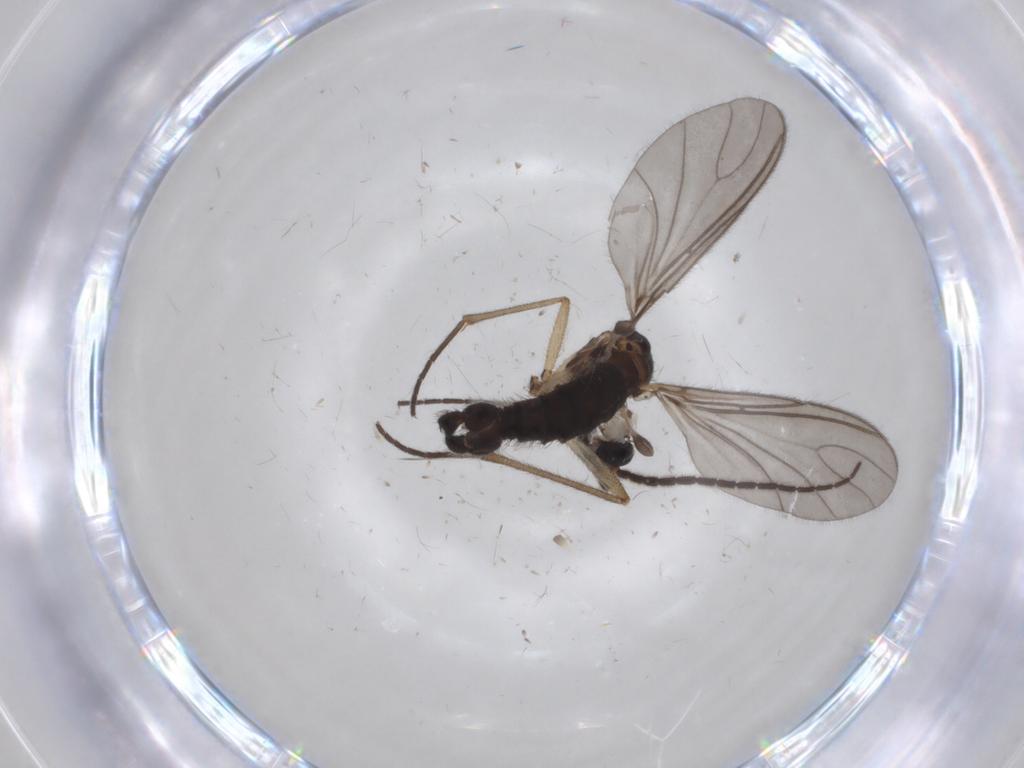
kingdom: Animalia
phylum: Arthropoda
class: Insecta
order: Diptera
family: Sciaridae
